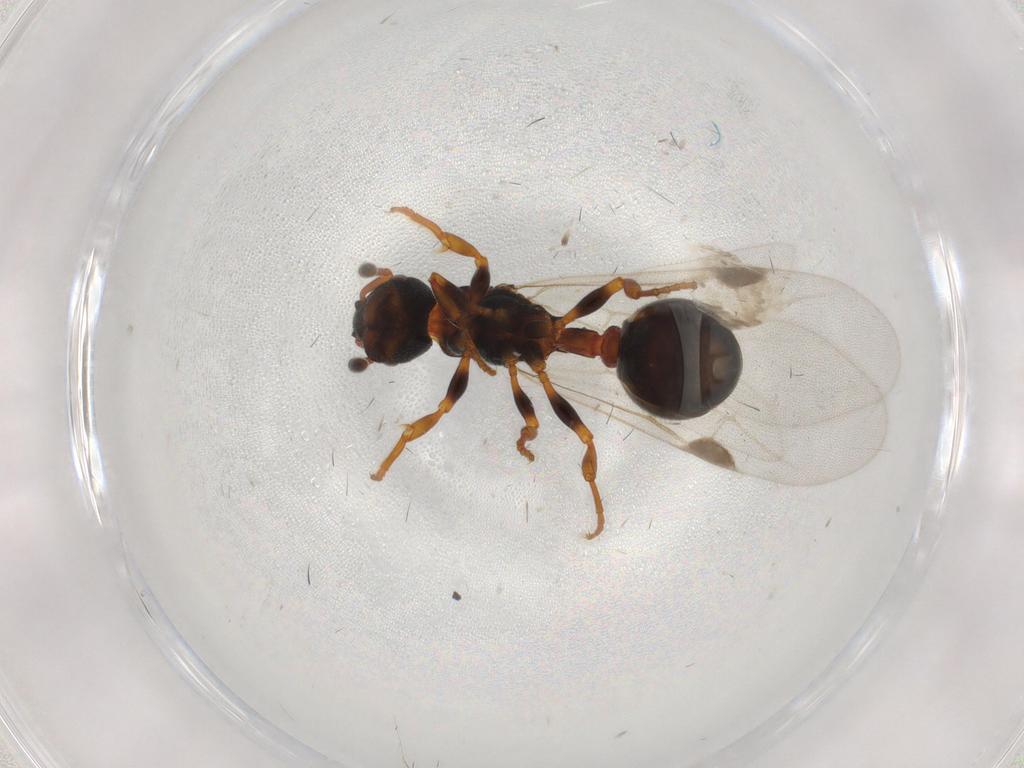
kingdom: Animalia
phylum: Arthropoda
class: Insecta
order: Hymenoptera
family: Formicidae
